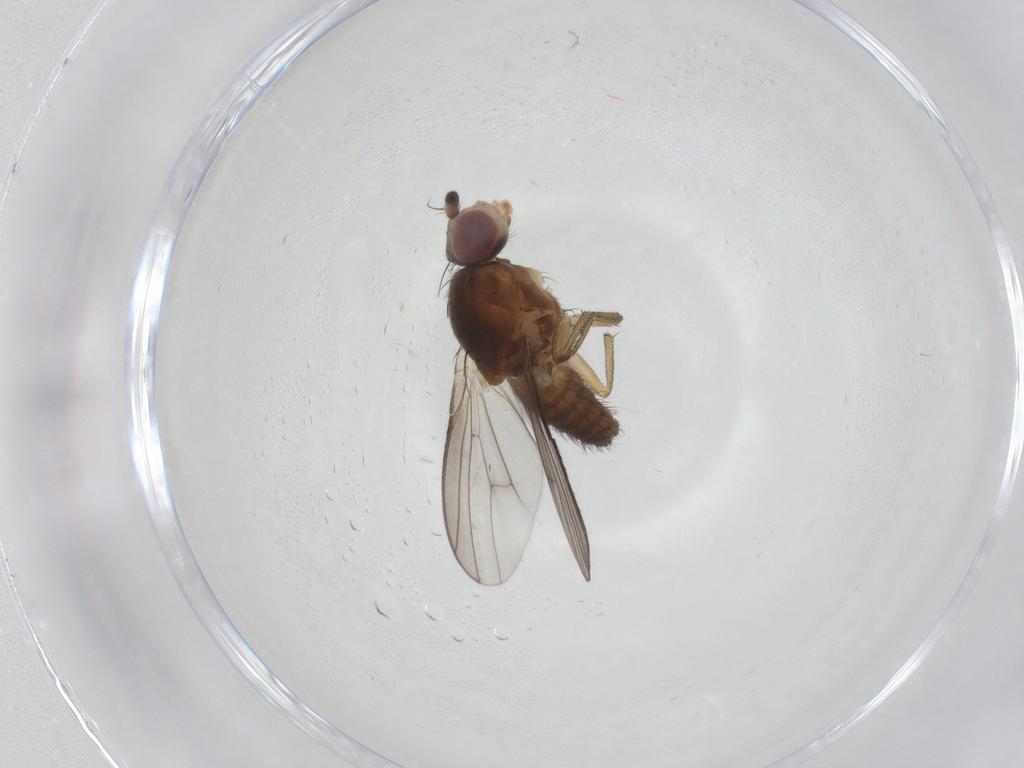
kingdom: Animalia
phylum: Arthropoda
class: Insecta
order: Diptera
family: Heleomyzidae
